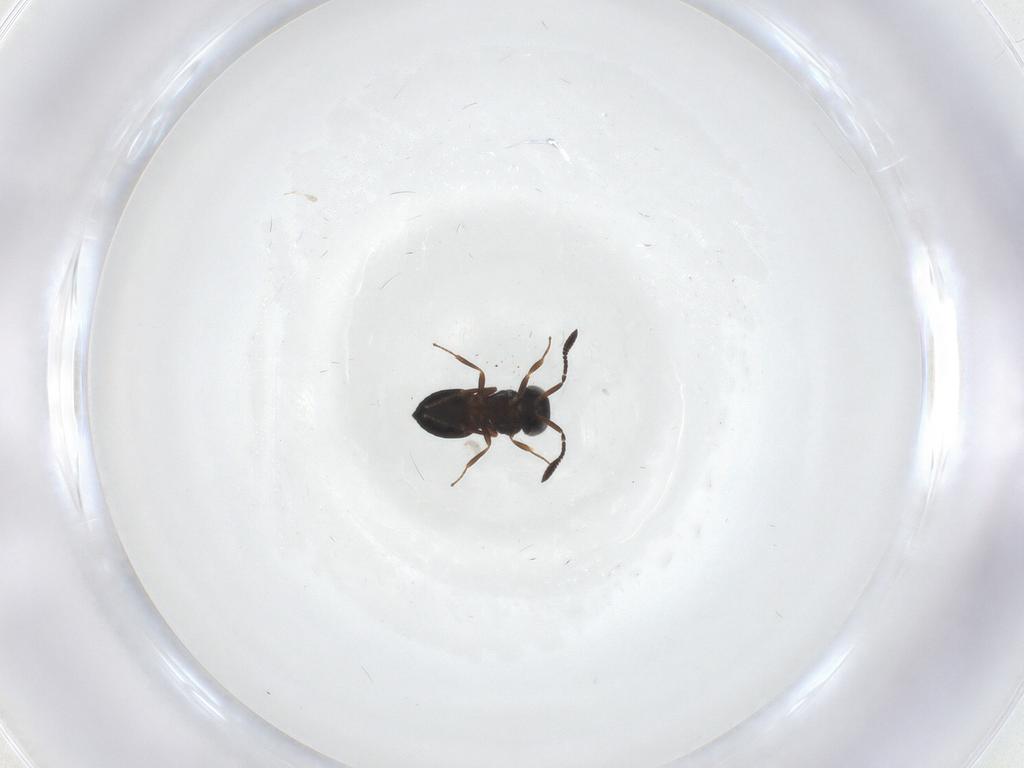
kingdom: Animalia
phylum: Arthropoda
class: Insecta
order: Hymenoptera
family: Scelionidae
